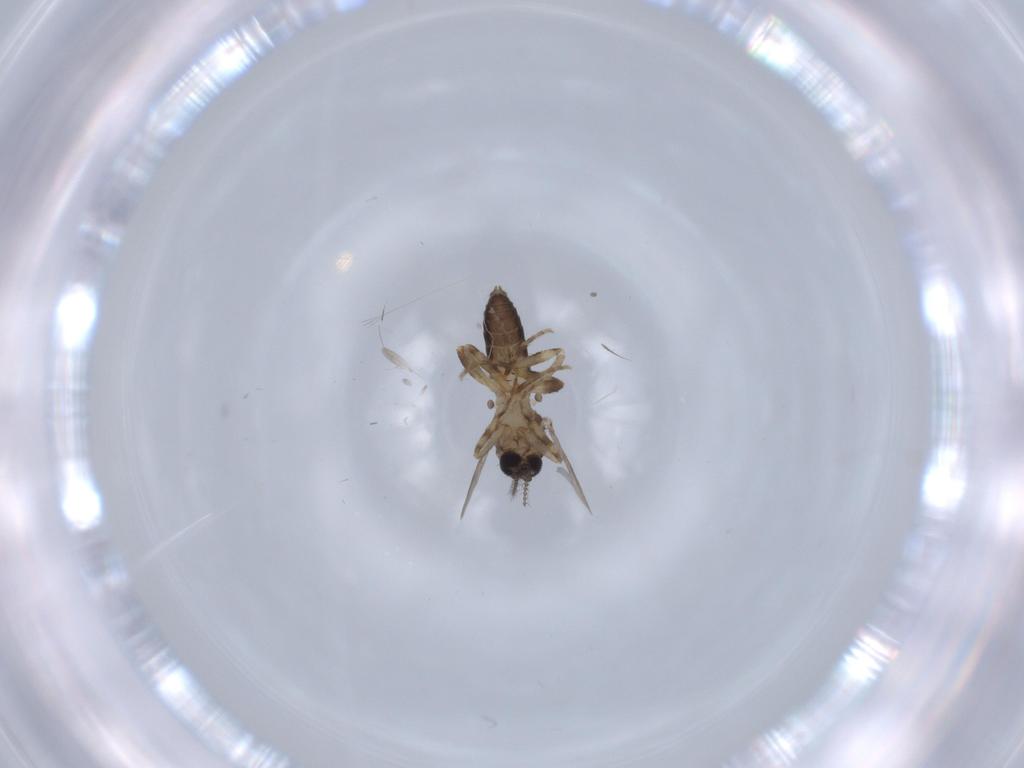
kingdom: Animalia
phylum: Arthropoda
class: Insecta
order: Diptera
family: Ceratopogonidae
